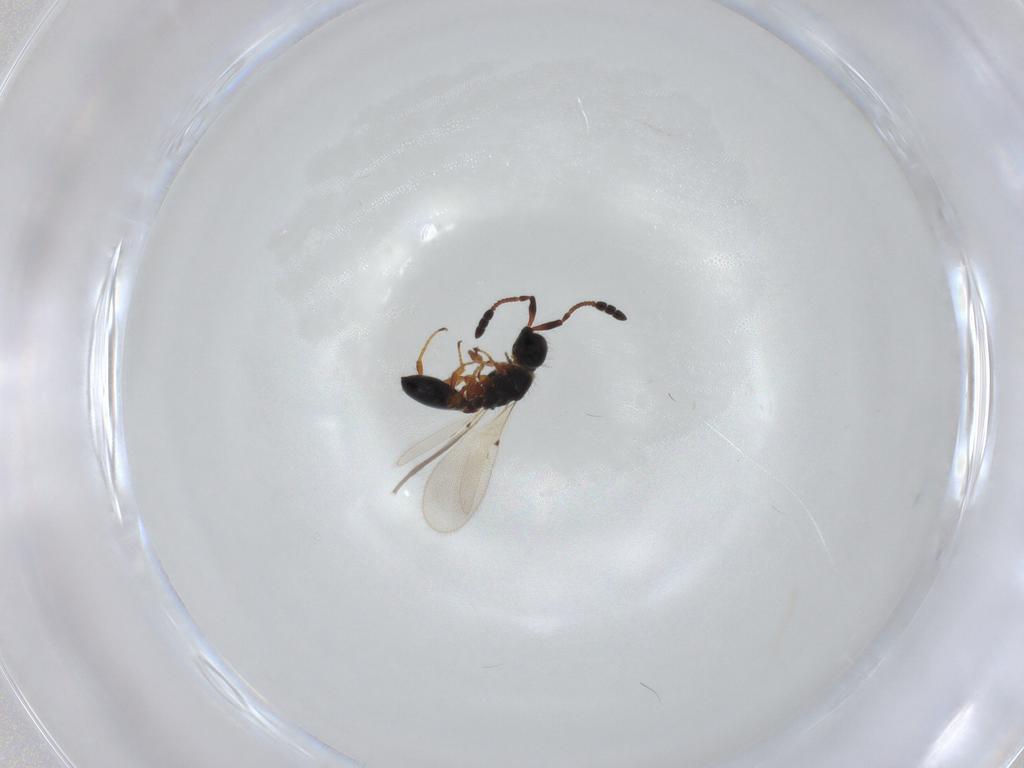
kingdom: Animalia
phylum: Arthropoda
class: Insecta
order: Hymenoptera
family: Diapriidae
